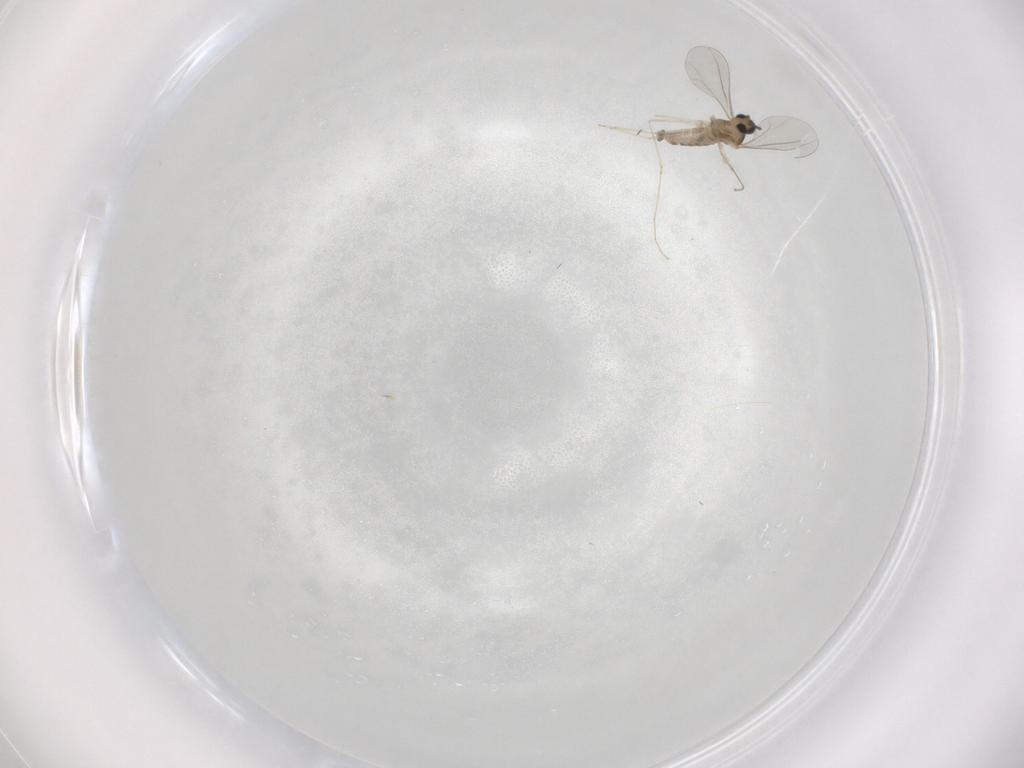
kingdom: Animalia
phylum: Arthropoda
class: Insecta
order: Diptera
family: Cecidomyiidae
